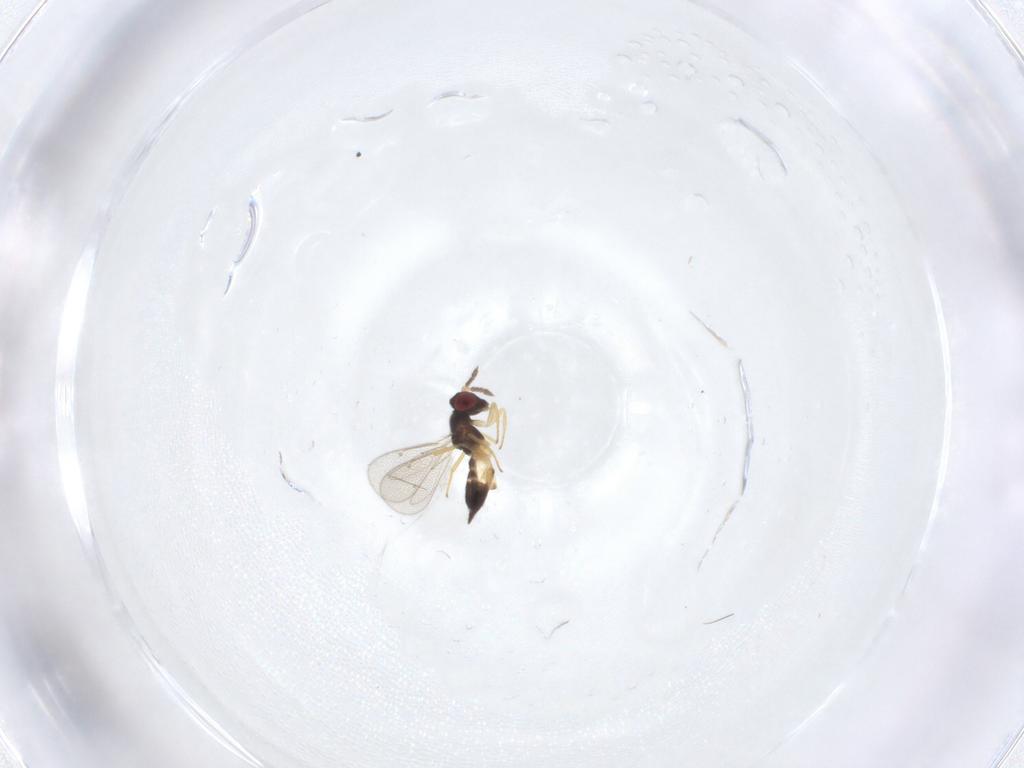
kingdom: Animalia
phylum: Arthropoda
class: Insecta
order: Hymenoptera
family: Eulophidae
